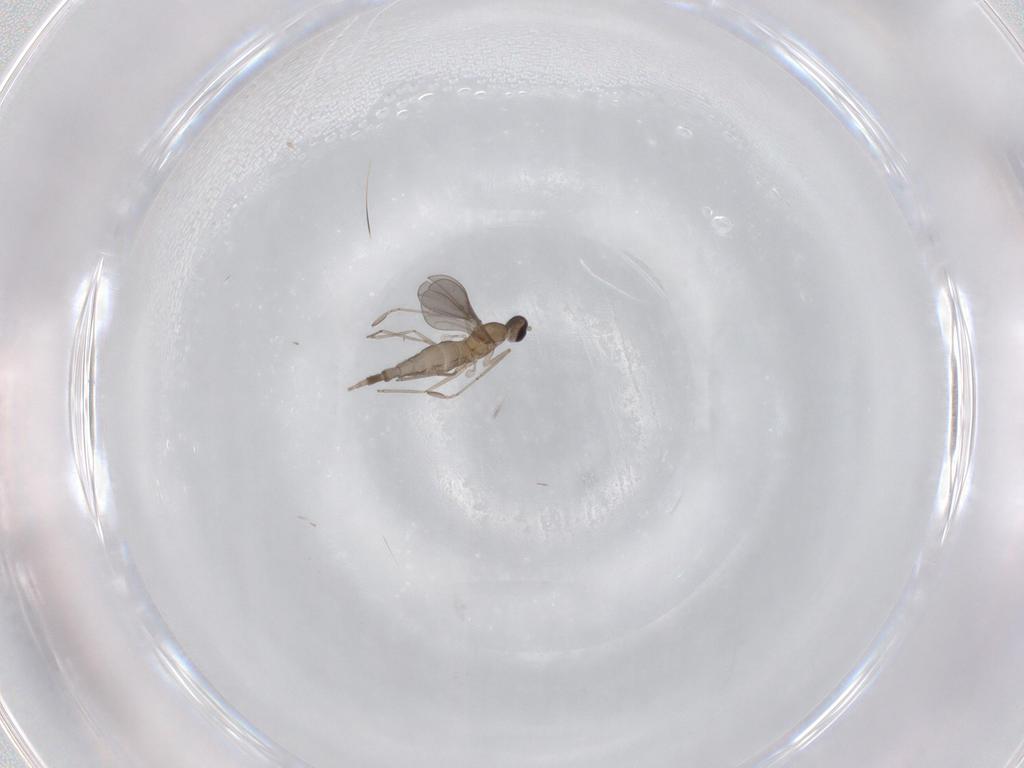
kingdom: Animalia
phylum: Arthropoda
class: Insecta
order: Diptera
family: Cecidomyiidae
